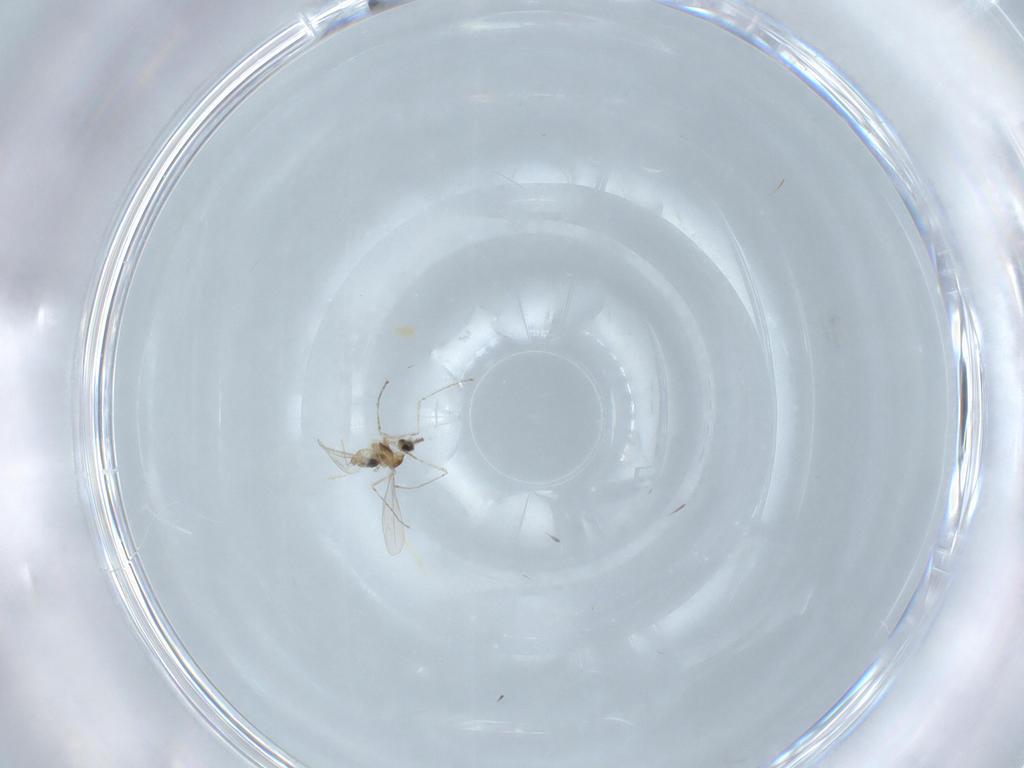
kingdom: Animalia
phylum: Arthropoda
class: Insecta
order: Diptera
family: Cecidomyiidae
